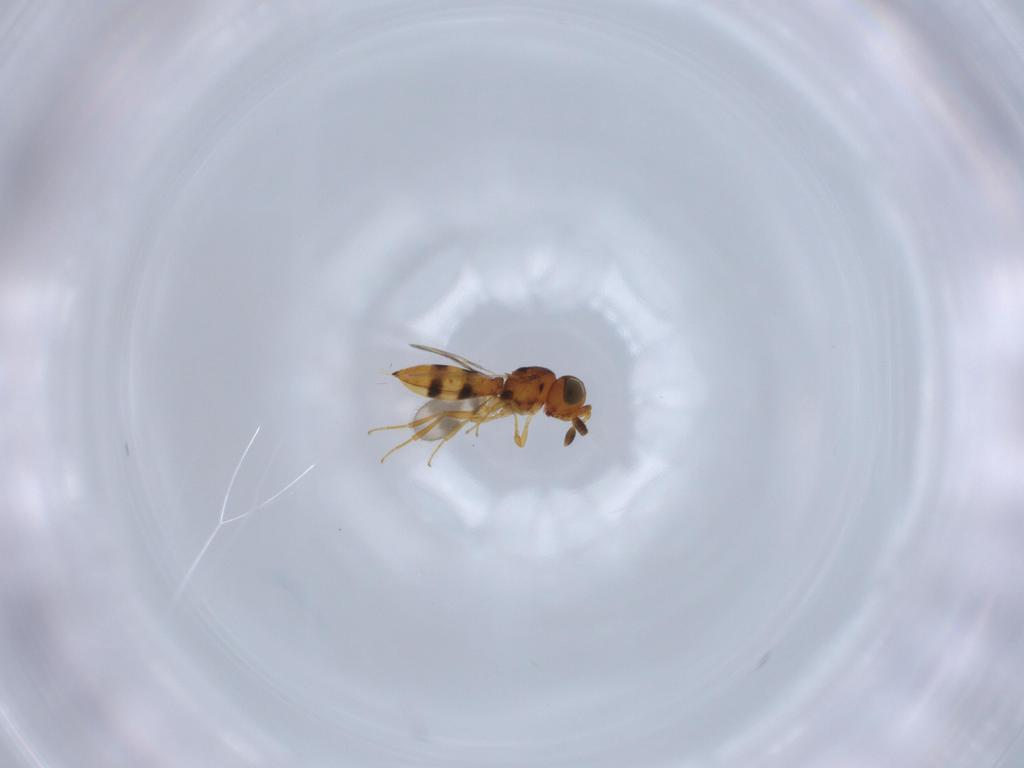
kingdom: Animalia
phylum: Arthropoda
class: Insecta
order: Hymenoptera
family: Scelionidae
